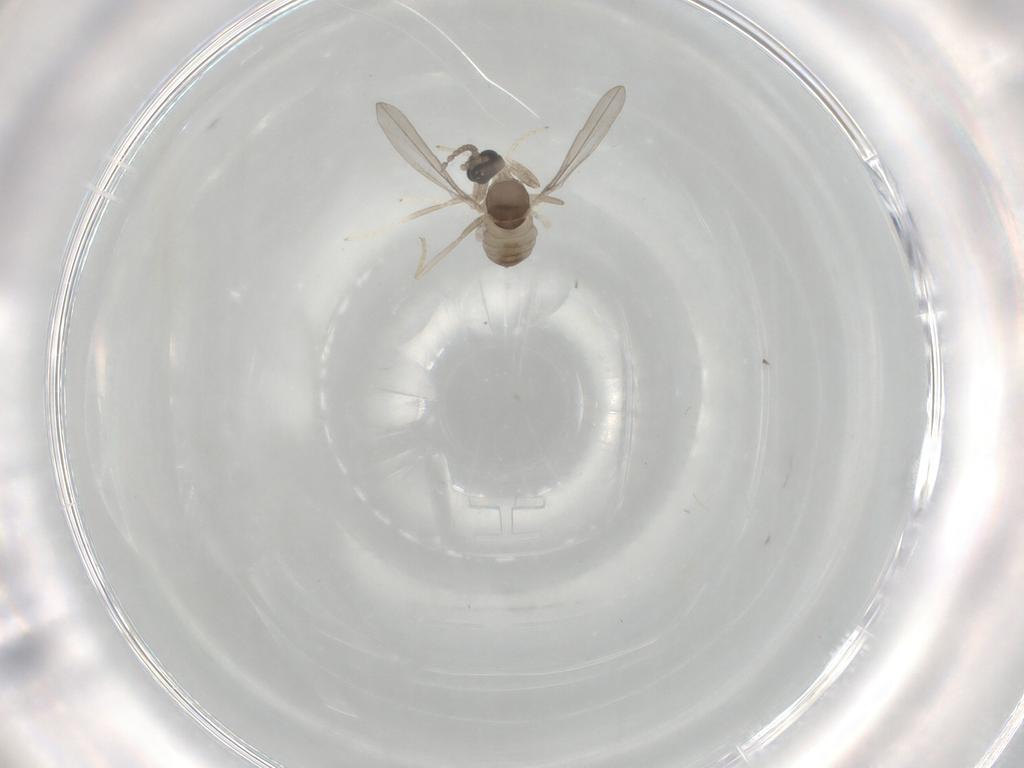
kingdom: Animalia
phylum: Arthropoda
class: Insecta
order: Diptera
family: Cecidomyiidae
